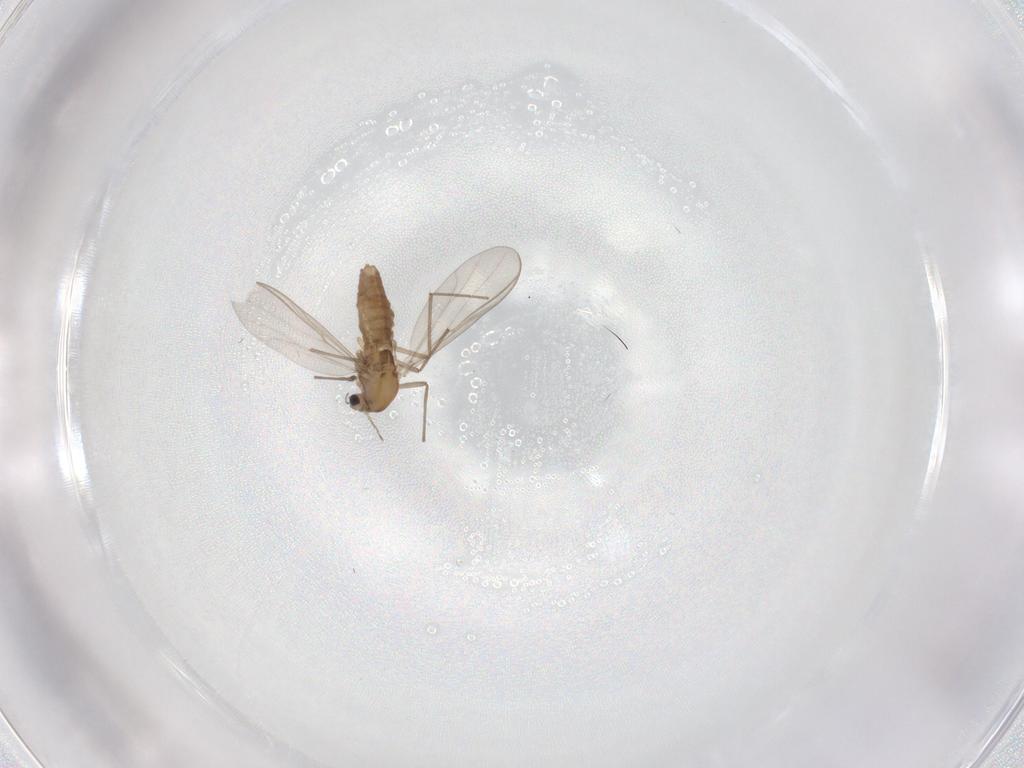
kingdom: Animalia
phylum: Arthropoda
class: Insecta
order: Diptera
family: Chironomidae
